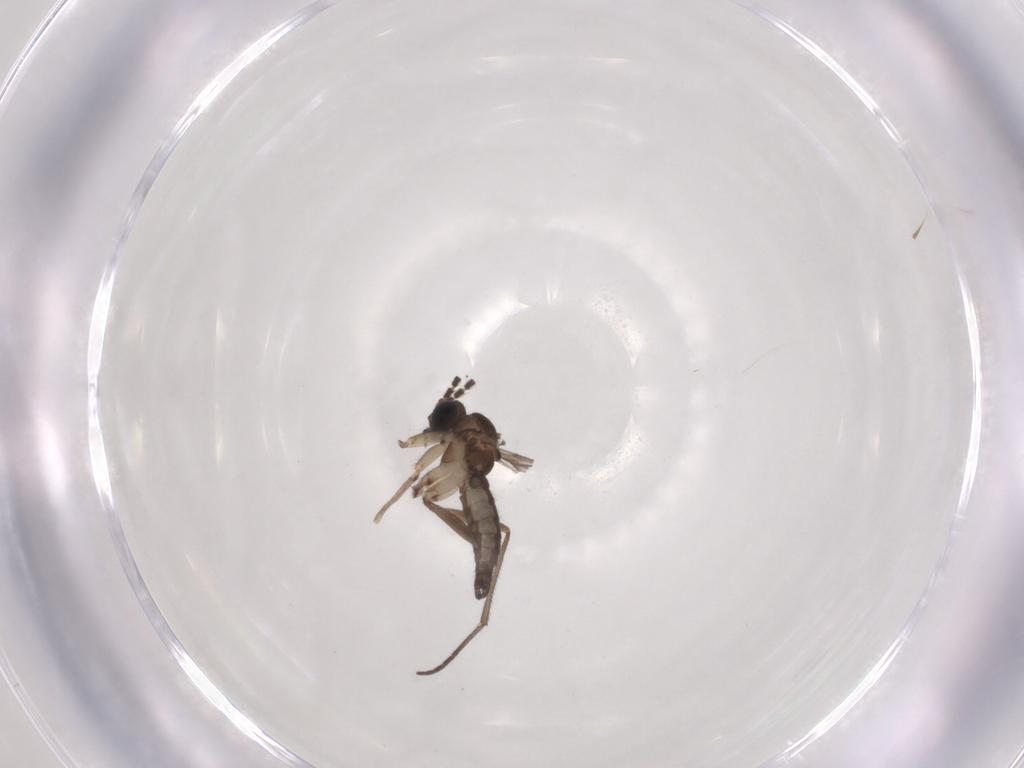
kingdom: Animalia
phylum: Arthropoda
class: Insecta
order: Diptera
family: Sciaridae
